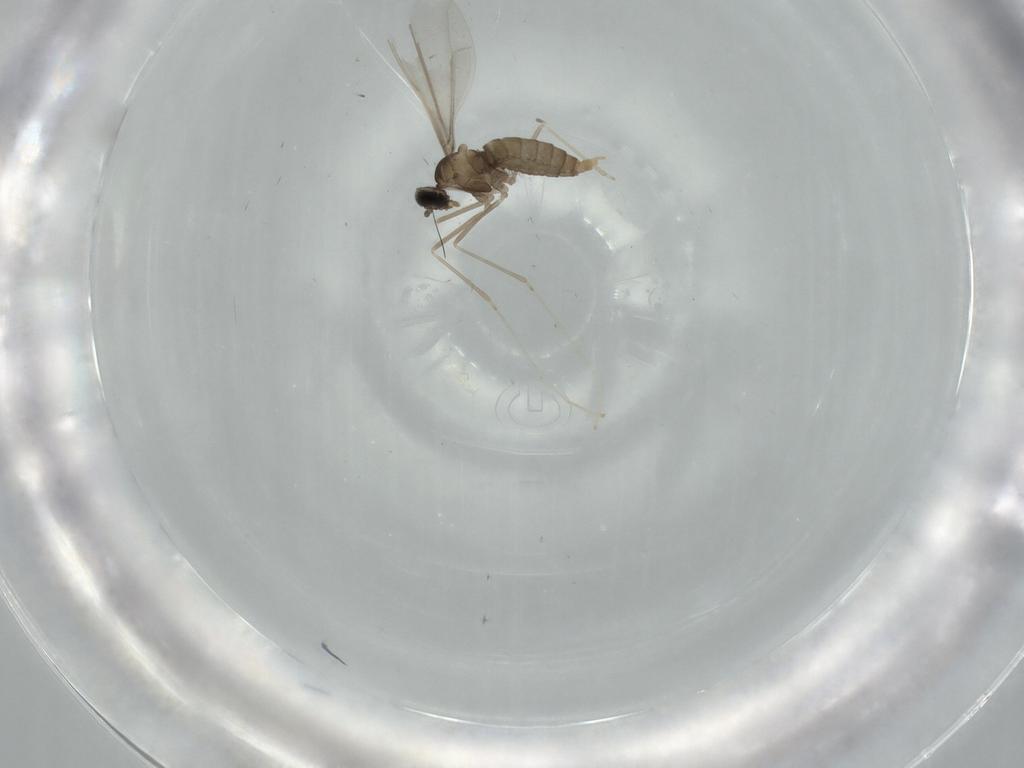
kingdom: Animalia
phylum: Arthropoda
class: Insecta
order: Diptera
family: Cecidomyiidae
